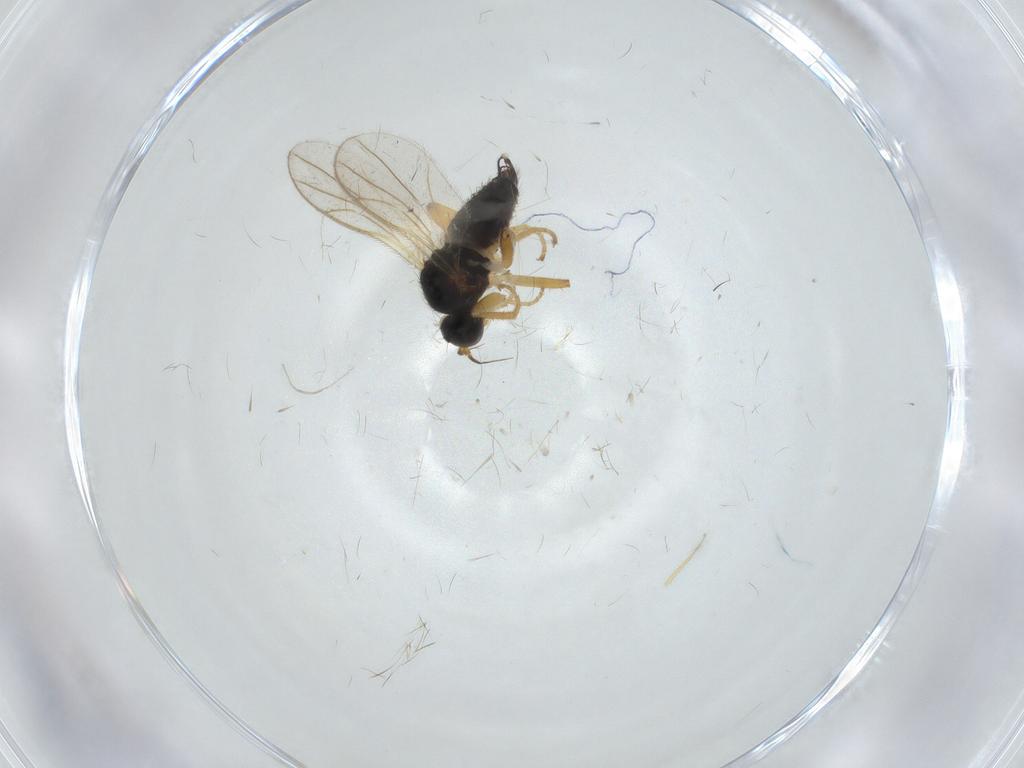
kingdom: Animalia
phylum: Arthropoda
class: Insecta
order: Diptera
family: Hybotidae
